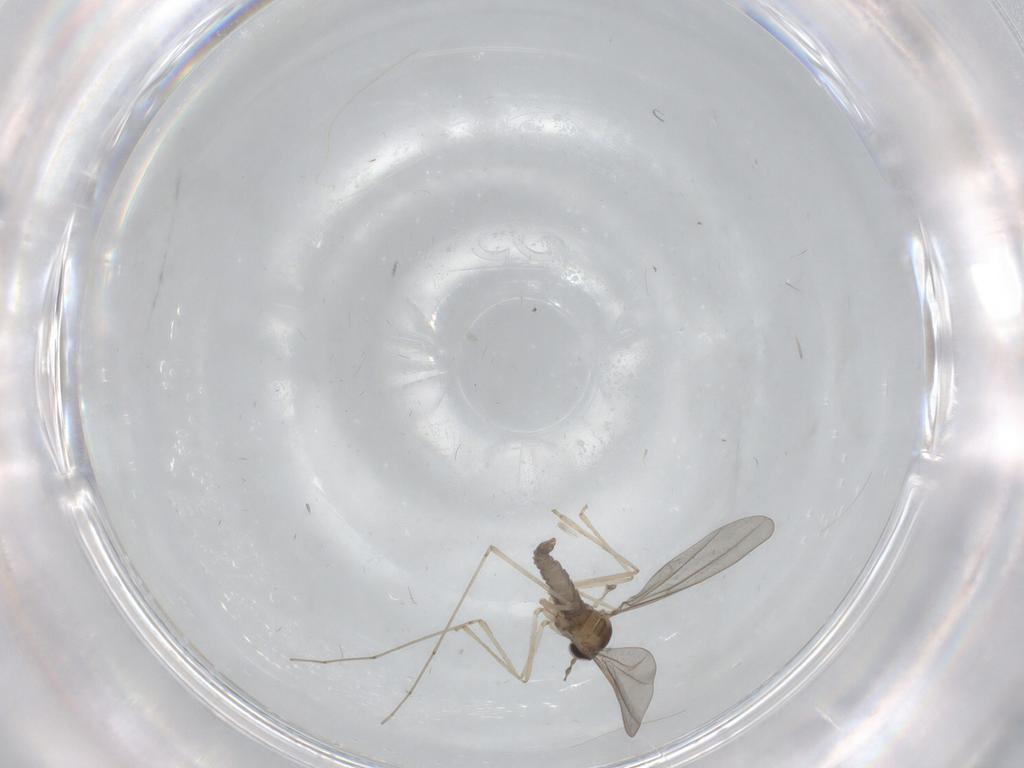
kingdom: Animalia
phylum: Arthropoda
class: Insecta
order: Diptera
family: Cecidomyiidae
